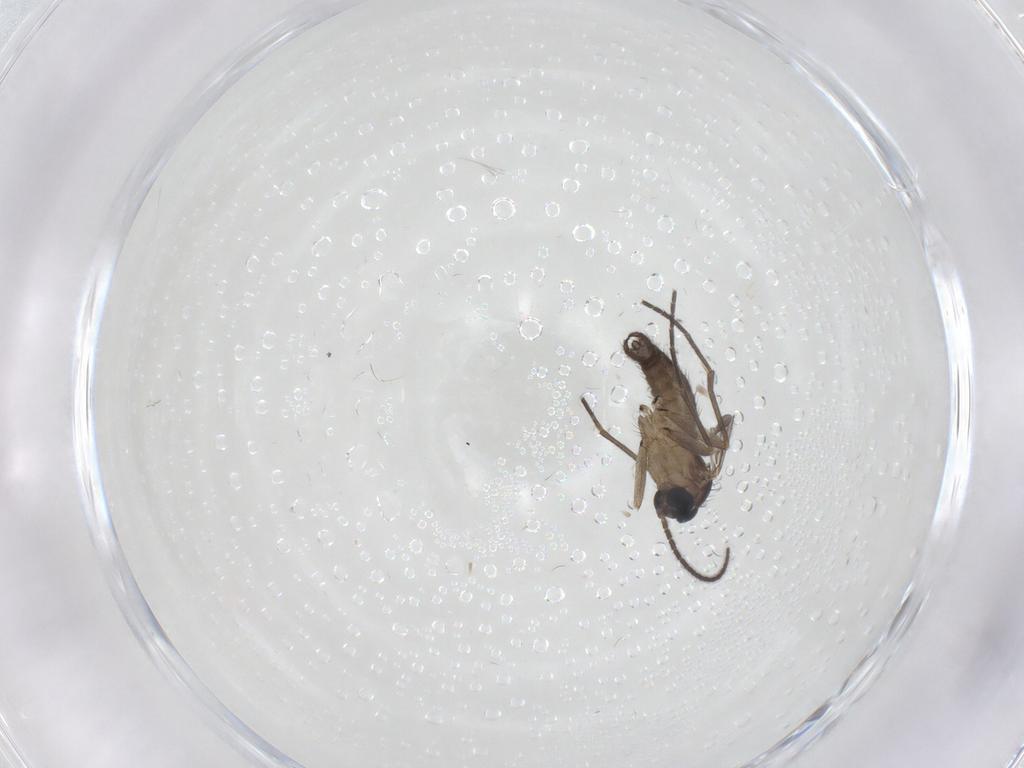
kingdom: Animalia
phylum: Arthropoda
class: Insecta
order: Diptera
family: Sciaridae
